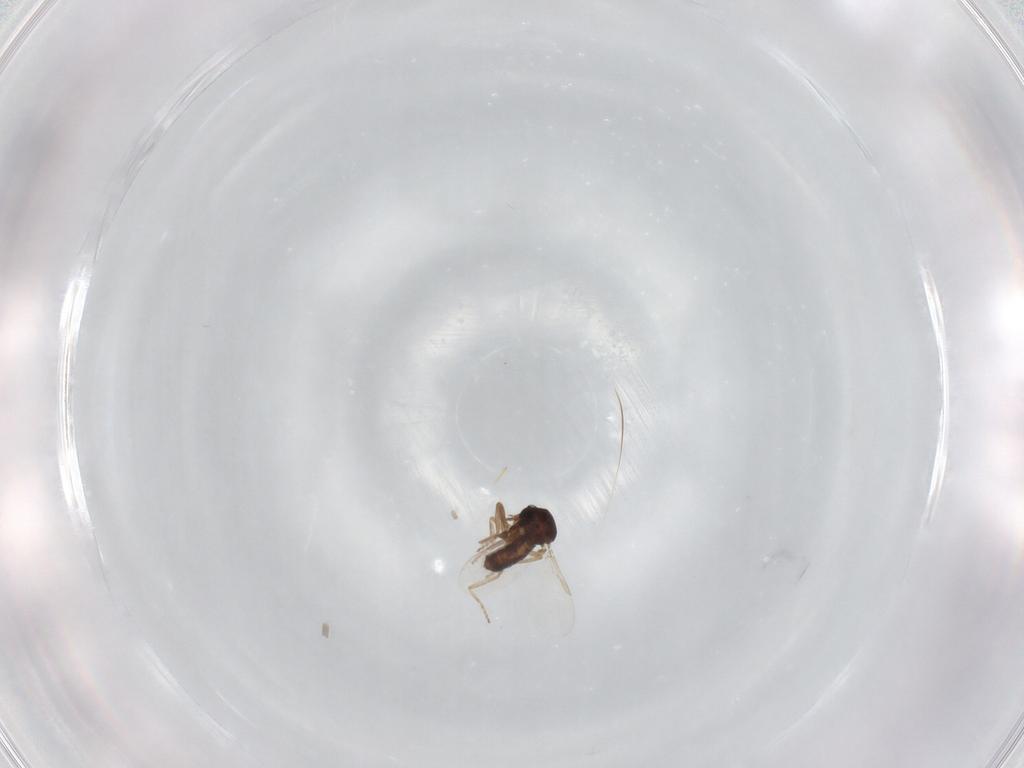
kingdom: Animalia
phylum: Arthropoda
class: Insecta
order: Diptera
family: Ceratopogonidae
